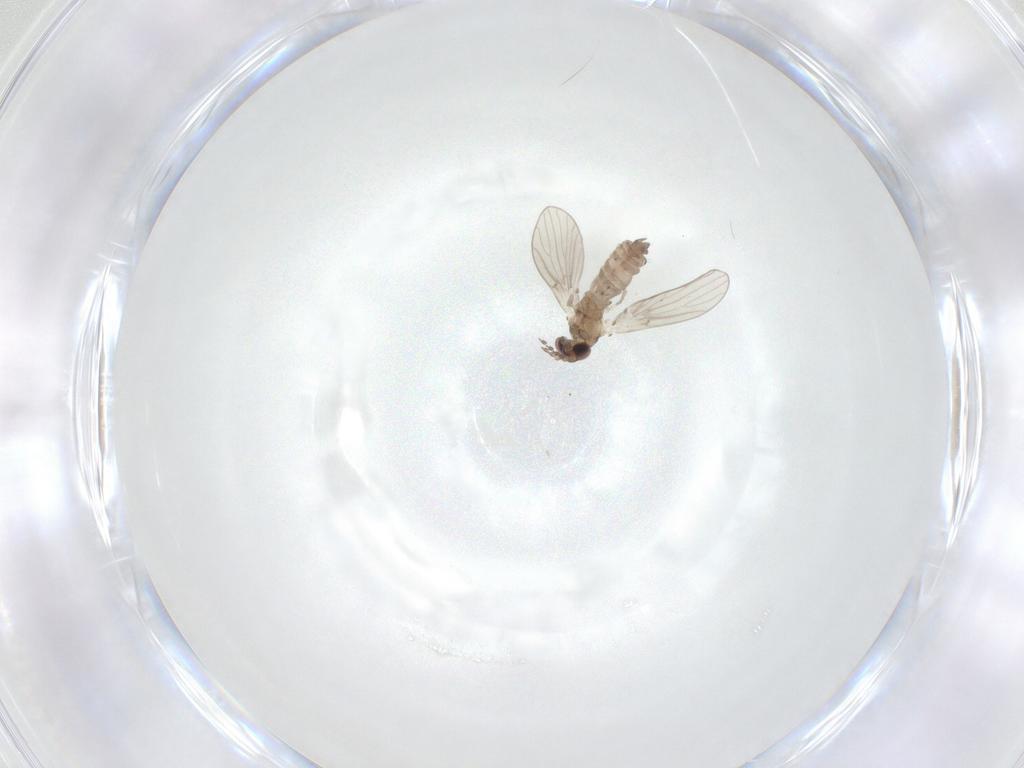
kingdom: Animalia
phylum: Arthropoda
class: Insecta
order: Diptera
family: Psychodidae
